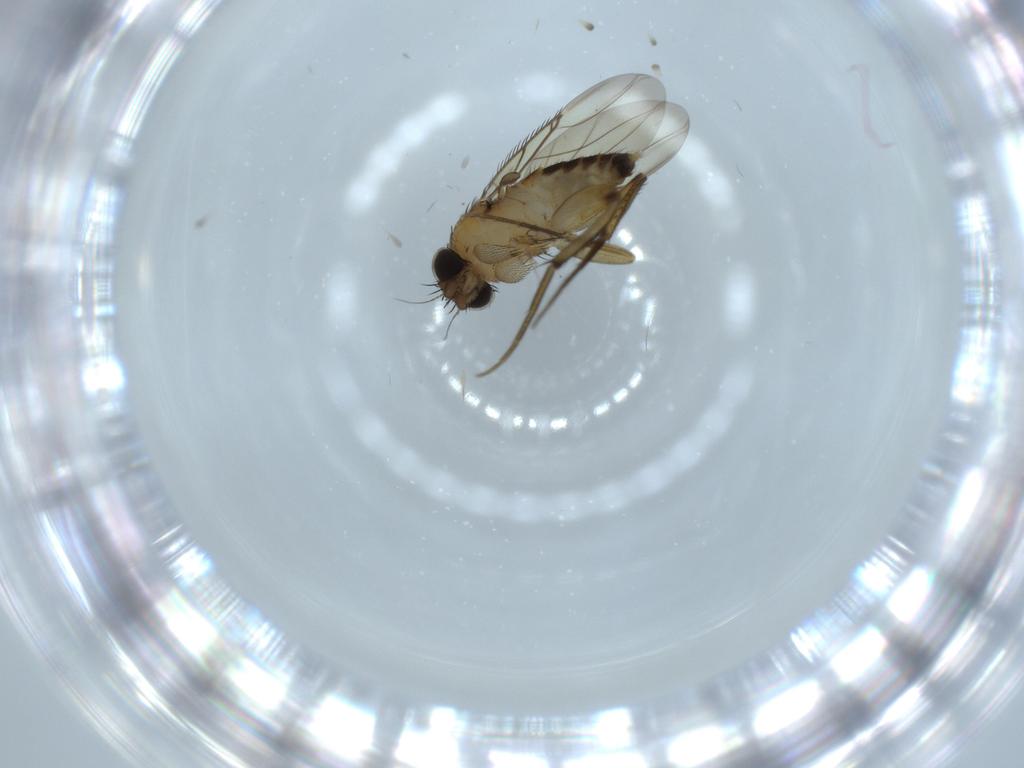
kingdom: Animalia
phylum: Arthropoda
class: Insecta
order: Diptera
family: Phoridae
